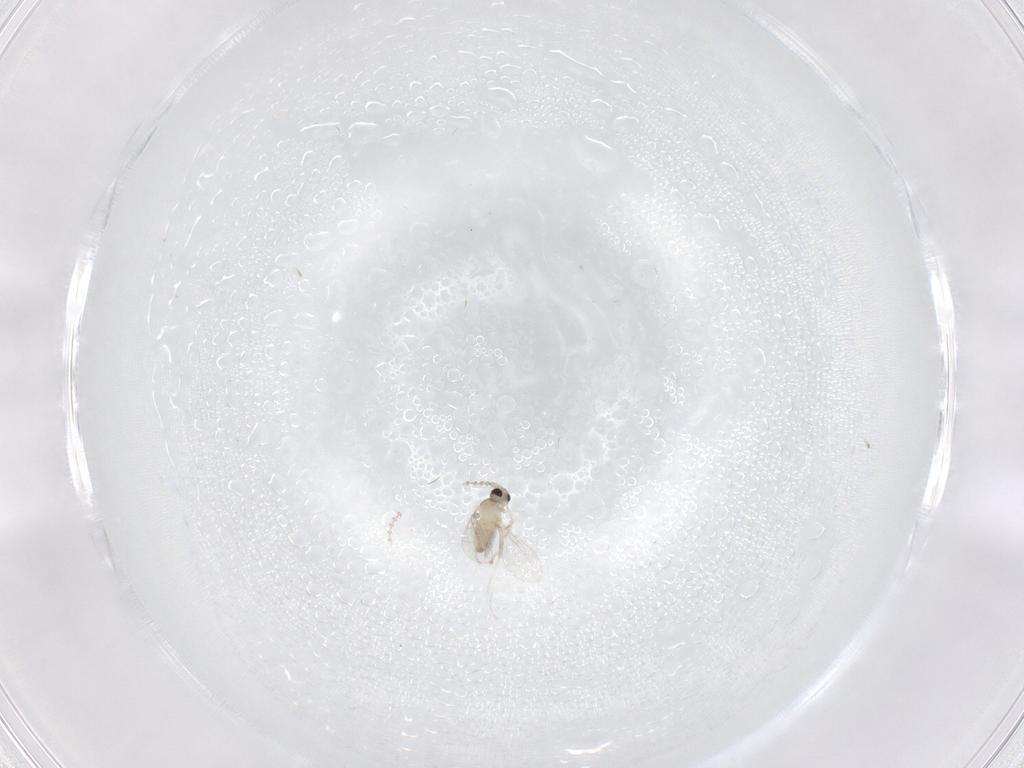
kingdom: Animalia
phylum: Arthropoda
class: Insecta
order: Diptera
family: Cecidomyiidae
